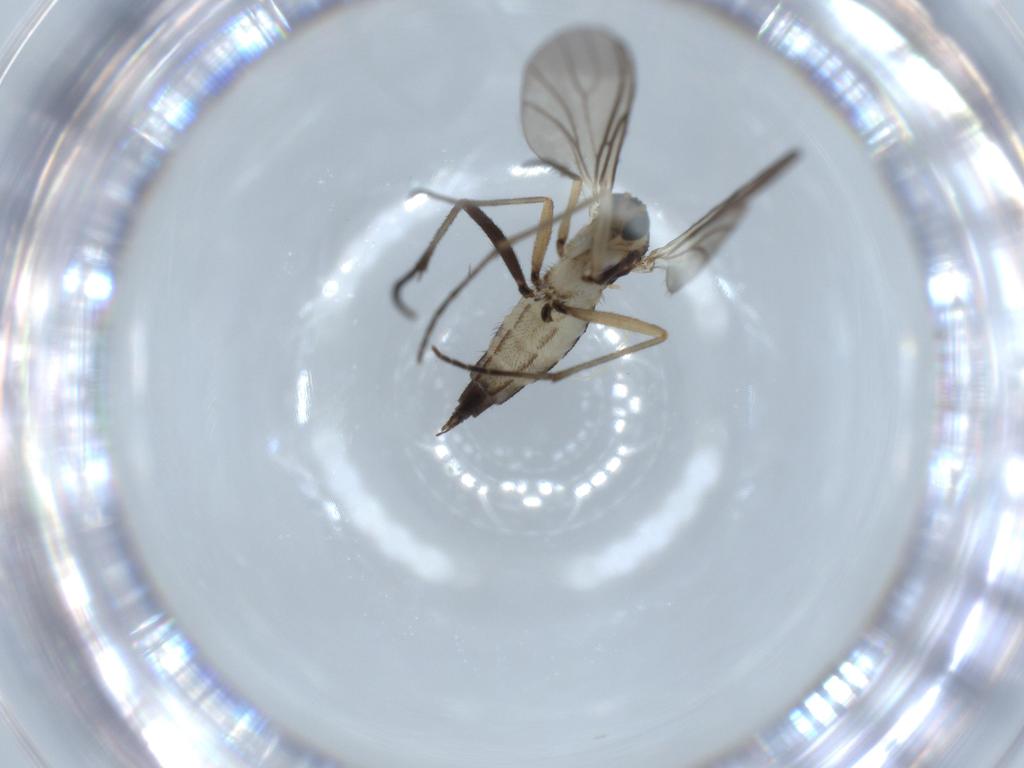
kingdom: Animalia
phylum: Arthropoda
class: Insecta
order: Diptera
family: Sciaridae
